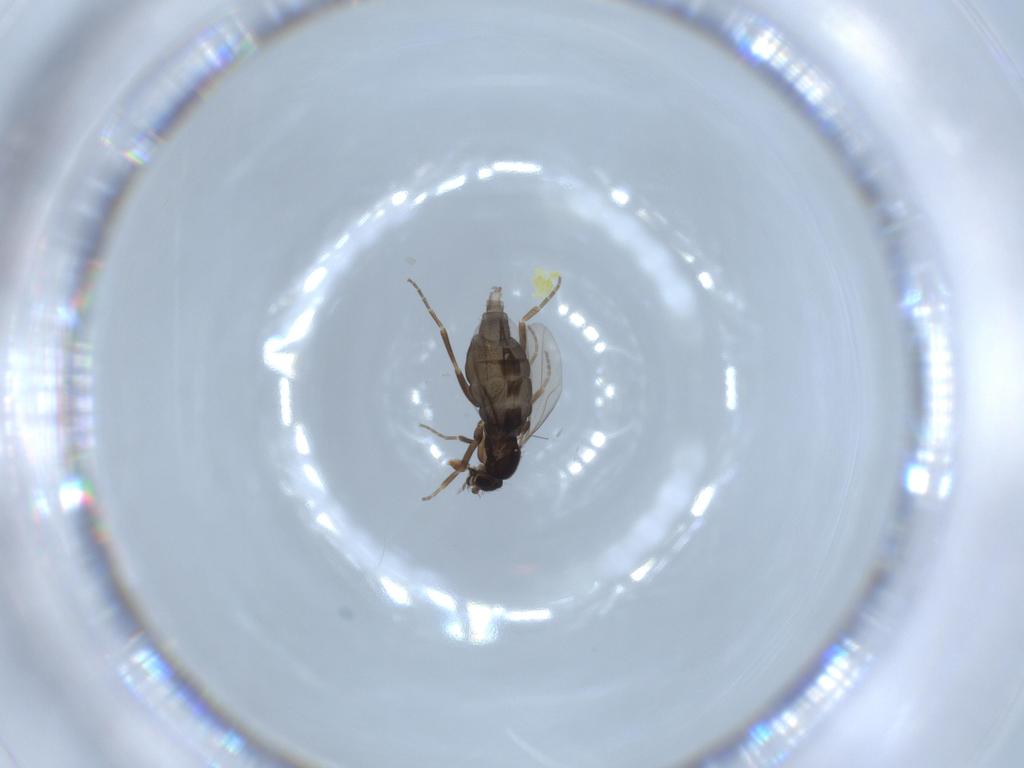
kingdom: Animalia
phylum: Arthropoda
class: Insecta
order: Diptera
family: Phoridae
